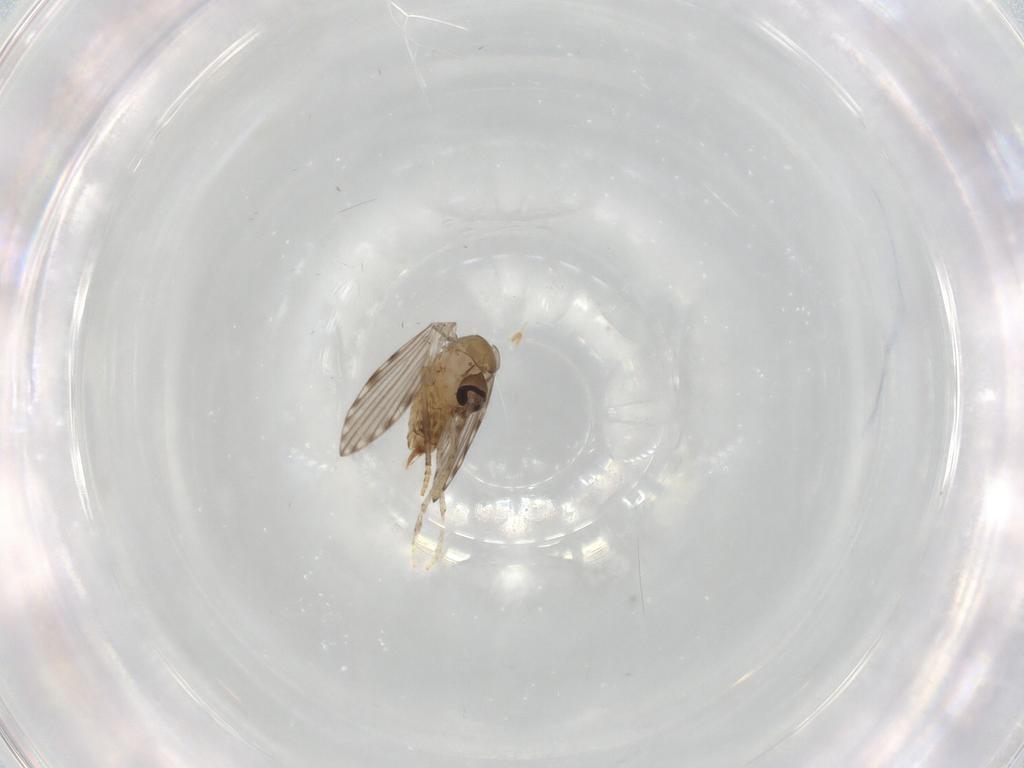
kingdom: Animalia
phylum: Arthropoda
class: Insecta
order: Diptera
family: Psychodidae
